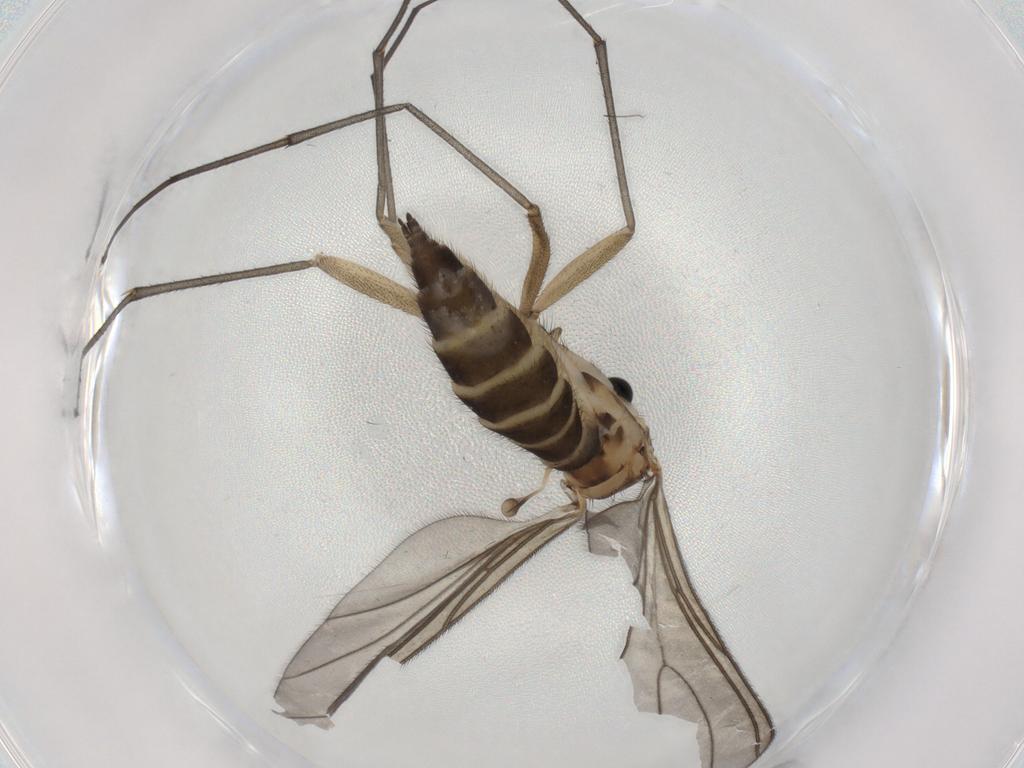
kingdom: Animalia
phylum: Arthropoda
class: Insecta
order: Diptera
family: Sciaridae
